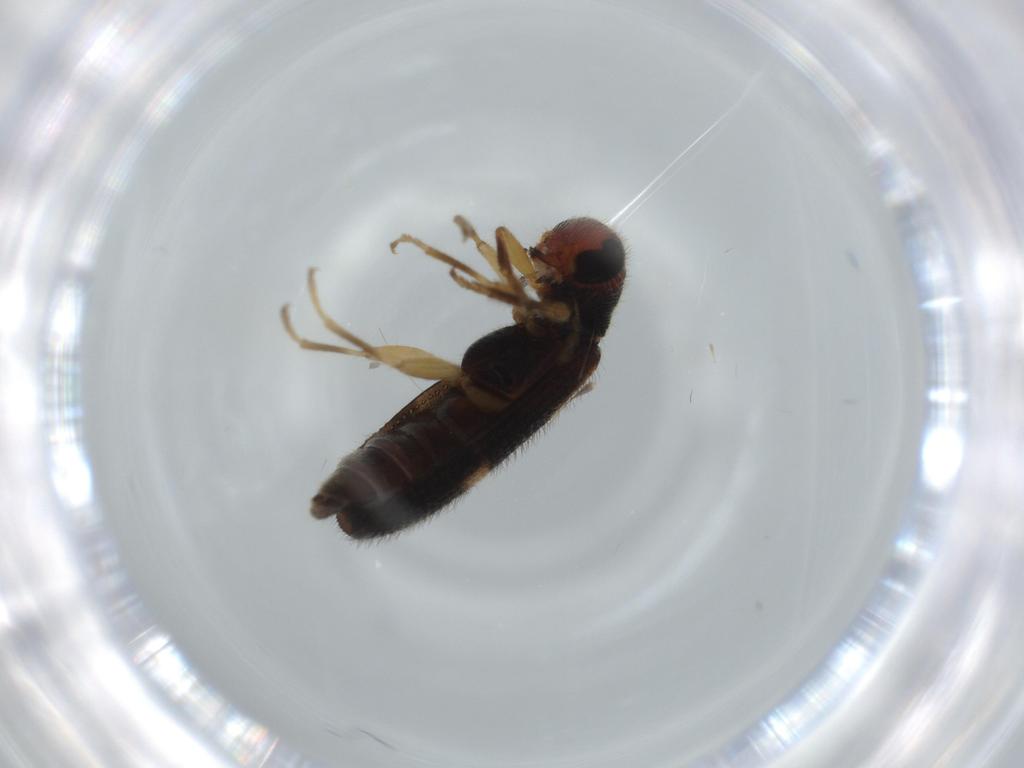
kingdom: Animalia
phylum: Arthropoda
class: Insecta
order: Coleoptera
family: Cleridae
